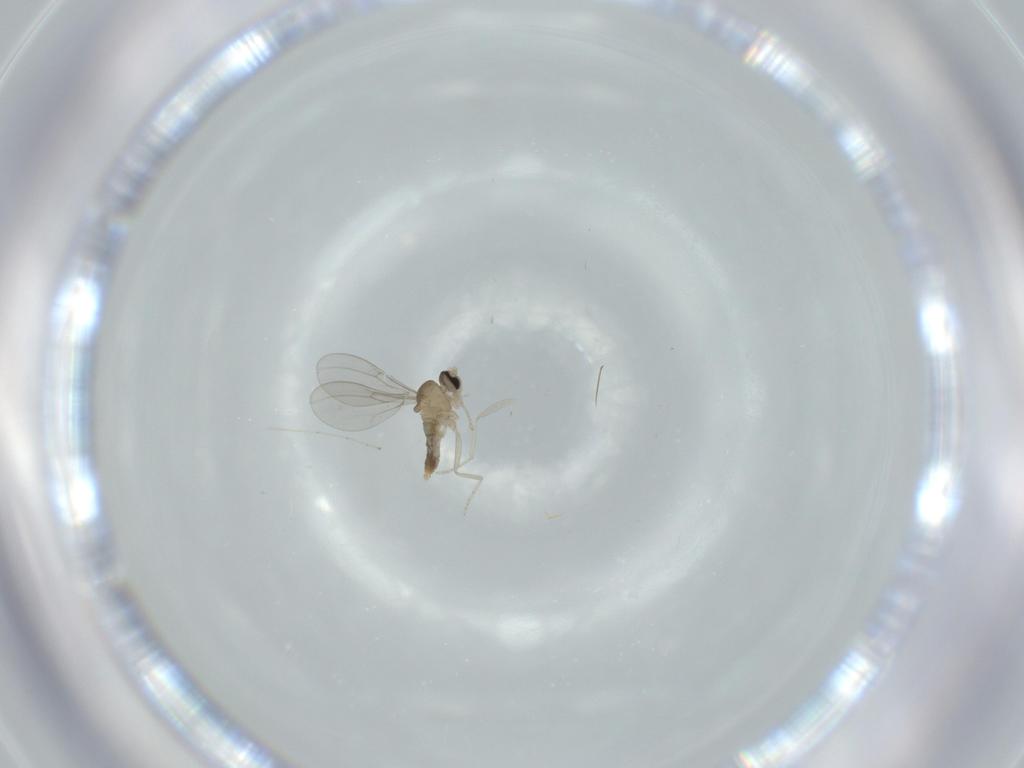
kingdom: Animalia
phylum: Arthropoda
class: Insecta
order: Diptera
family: Cecidomyiidae
